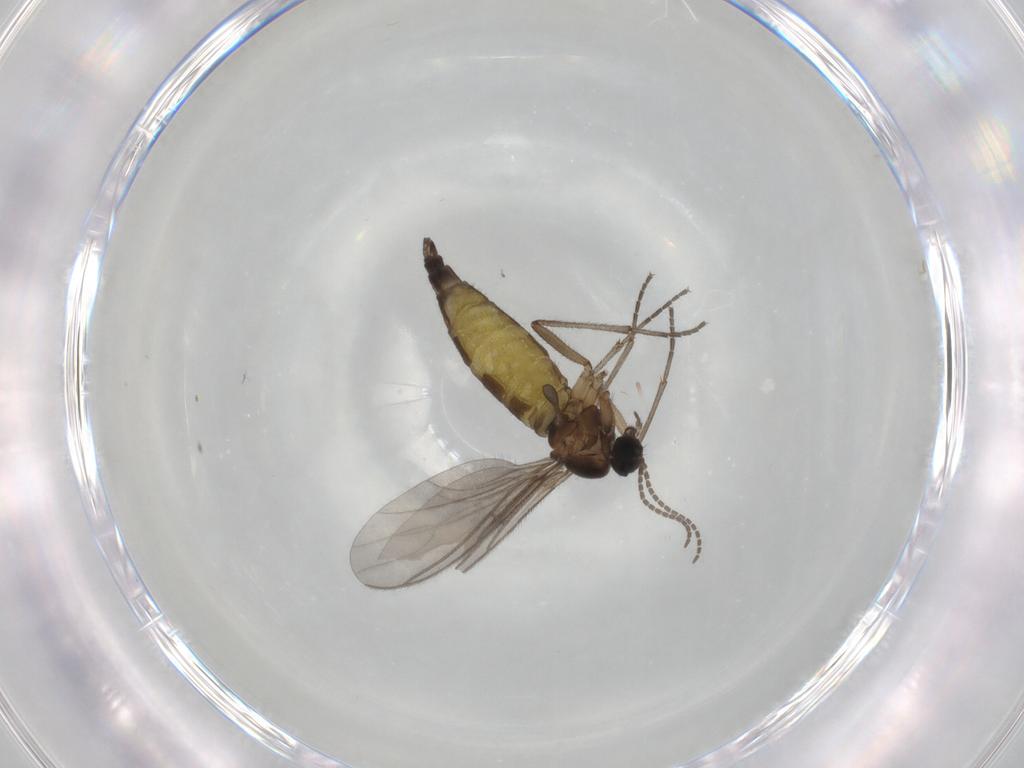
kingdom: Animalia
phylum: Arthropoda
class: Insecta
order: Diptera
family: Sciaridae
